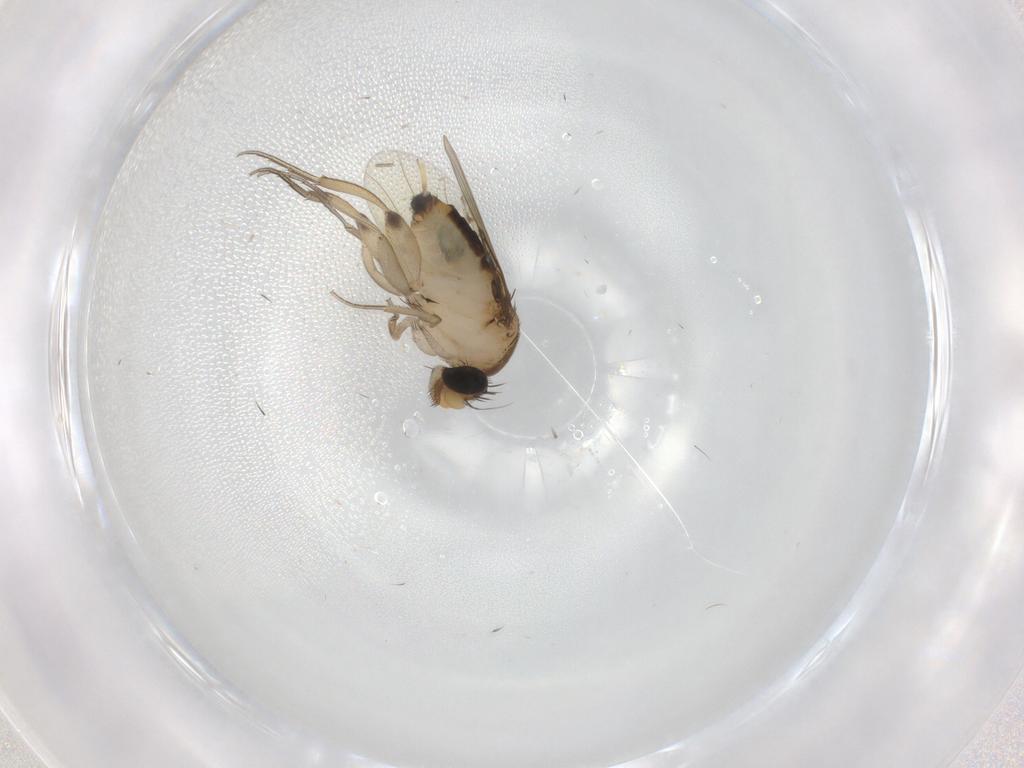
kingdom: Animalia
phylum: Arthropoda
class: Insecta
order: Diptera
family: Phoridae
